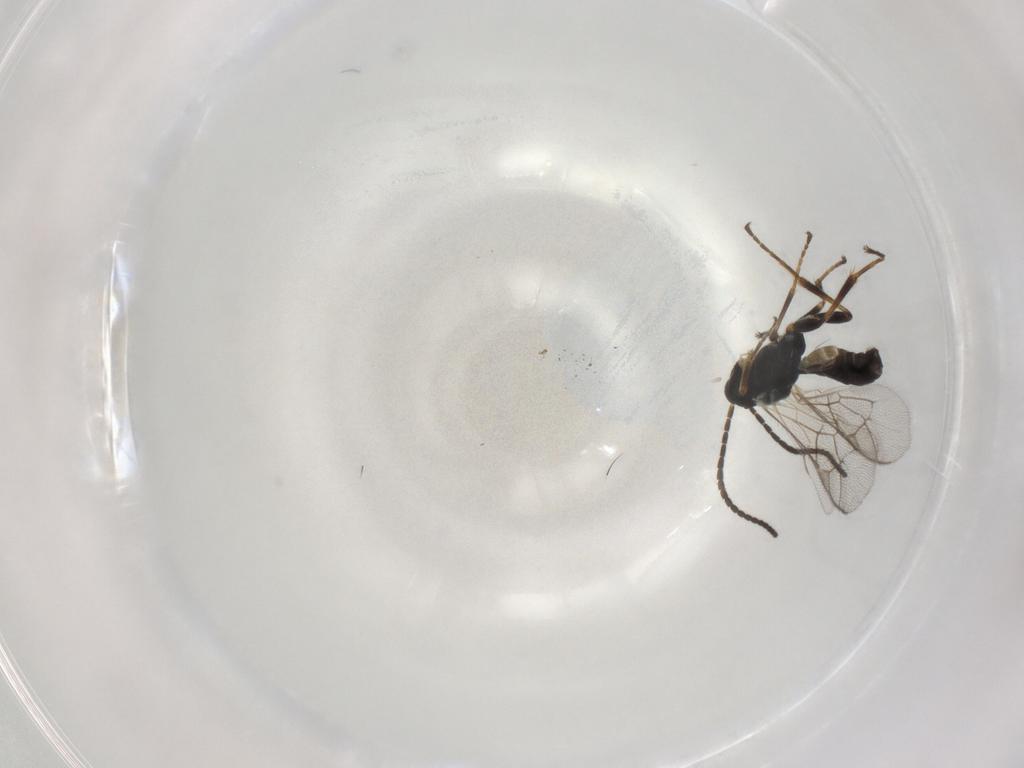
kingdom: Animalia
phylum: Arthropoda
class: Insecta
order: Hymenoptera
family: Ichneumonidae
